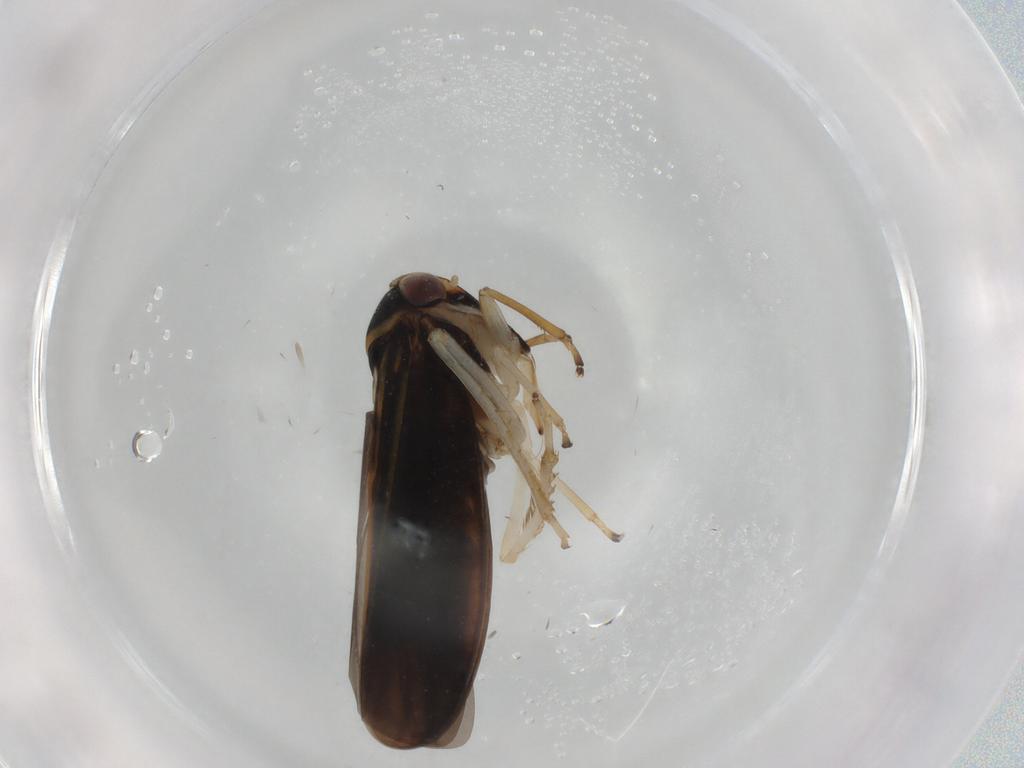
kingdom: Animalia
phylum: Arthropoda
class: Insecta
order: Hemiptera
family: Cicadellidae
